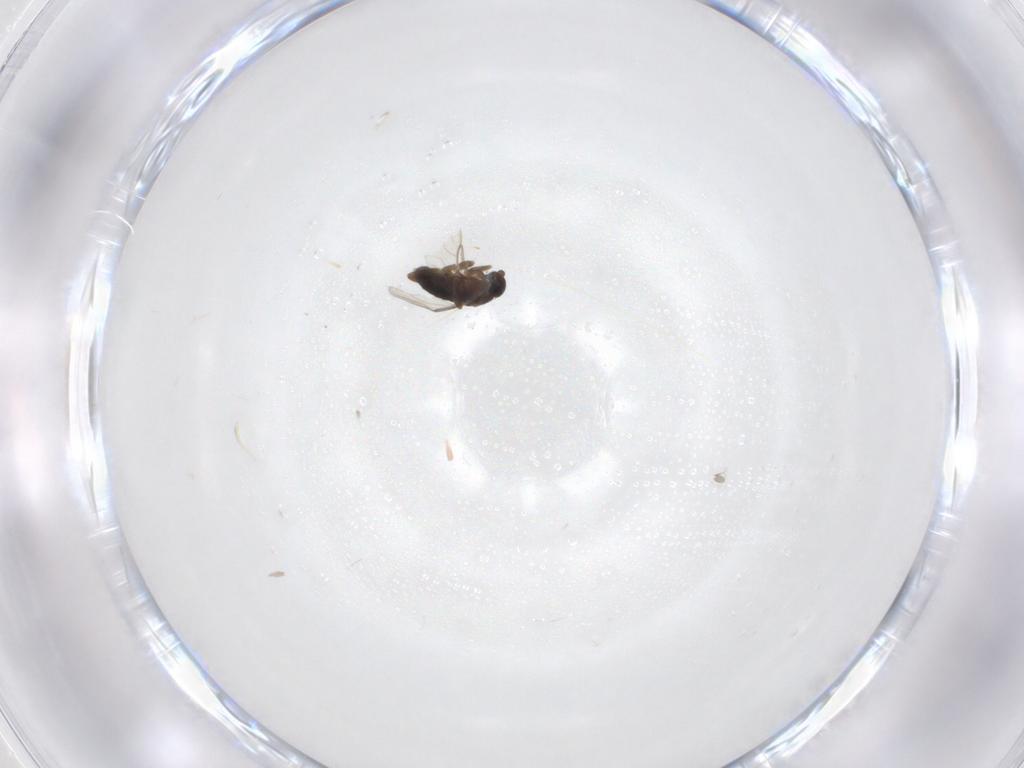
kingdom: Animalia
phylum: Arthropoda
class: Insecta
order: Diptera
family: Phoridae
